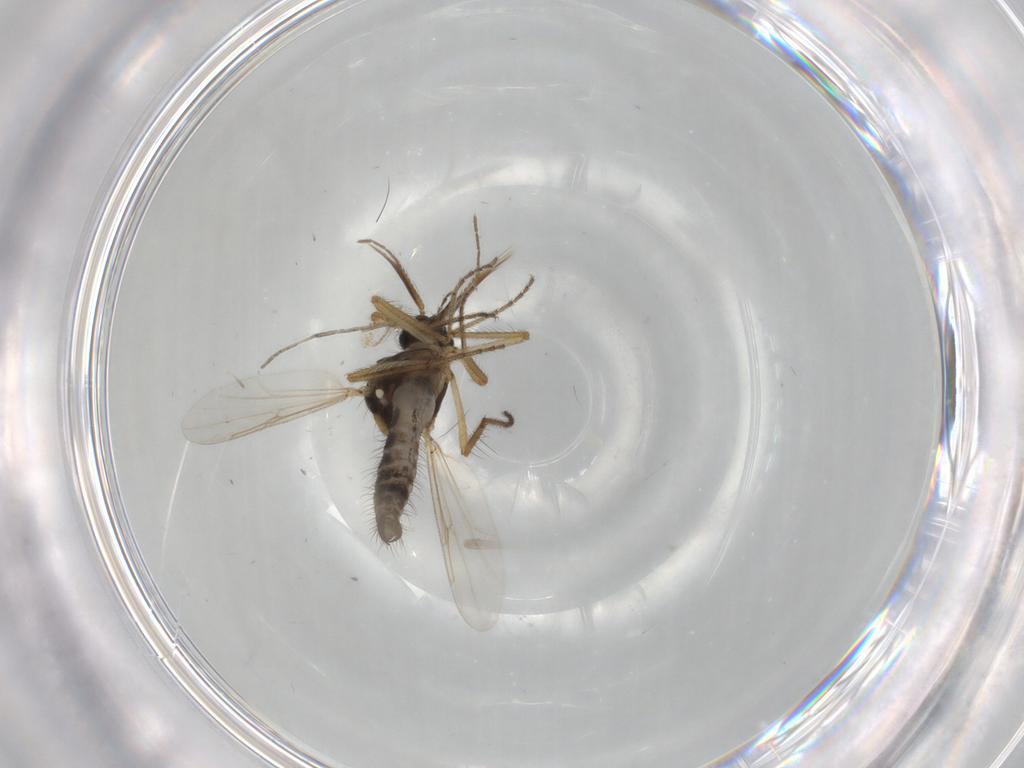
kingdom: Animalia
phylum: Arthropoda
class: Insecta
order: Diptera
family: Ceratopogonidae
